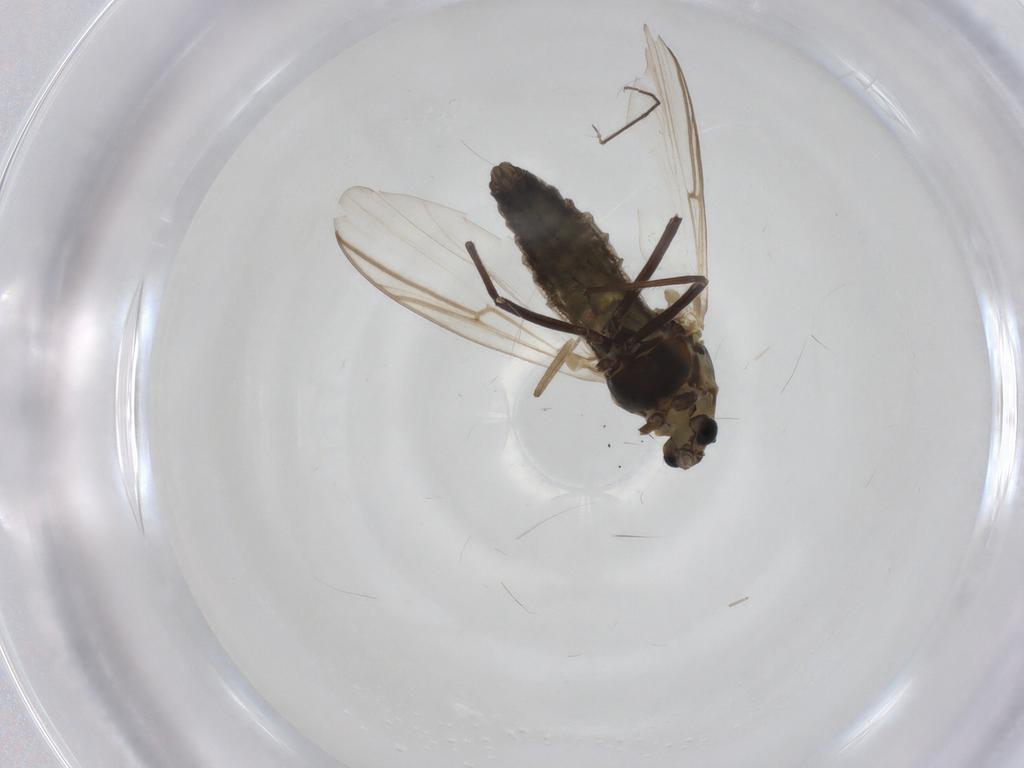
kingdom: Animalia
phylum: Arthropoda
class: Insecta
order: Diptera
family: Chironomidae
